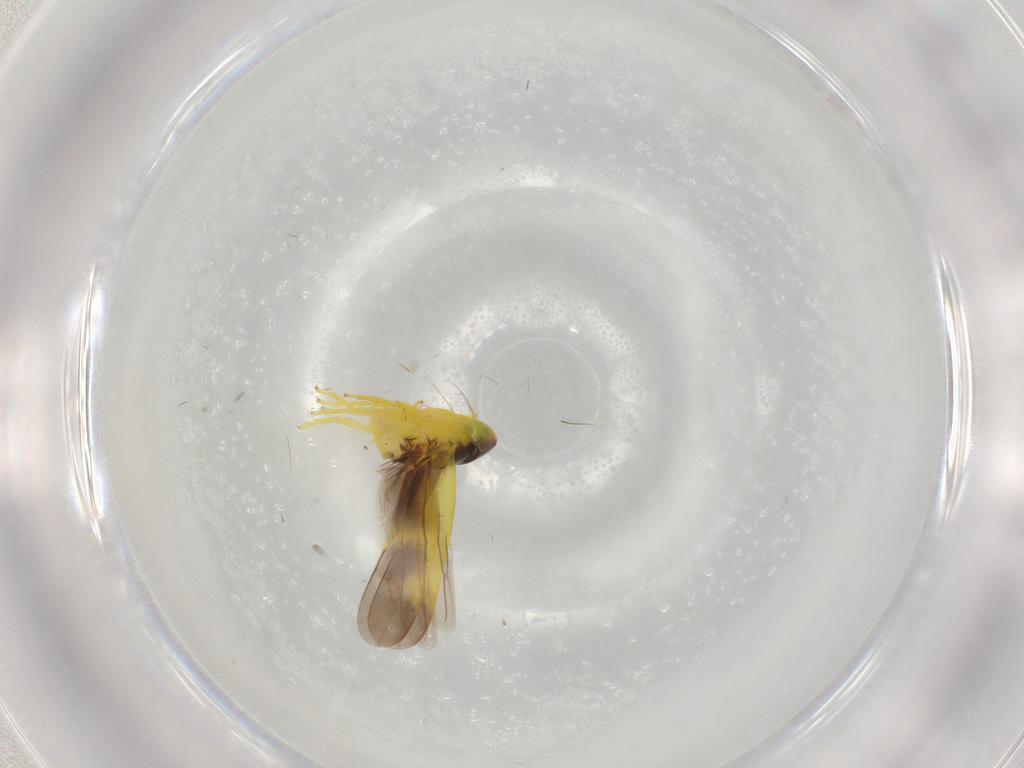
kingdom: Animalia
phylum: Arthropoda
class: Insecta
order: Hemiptera
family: Cicadellidae
